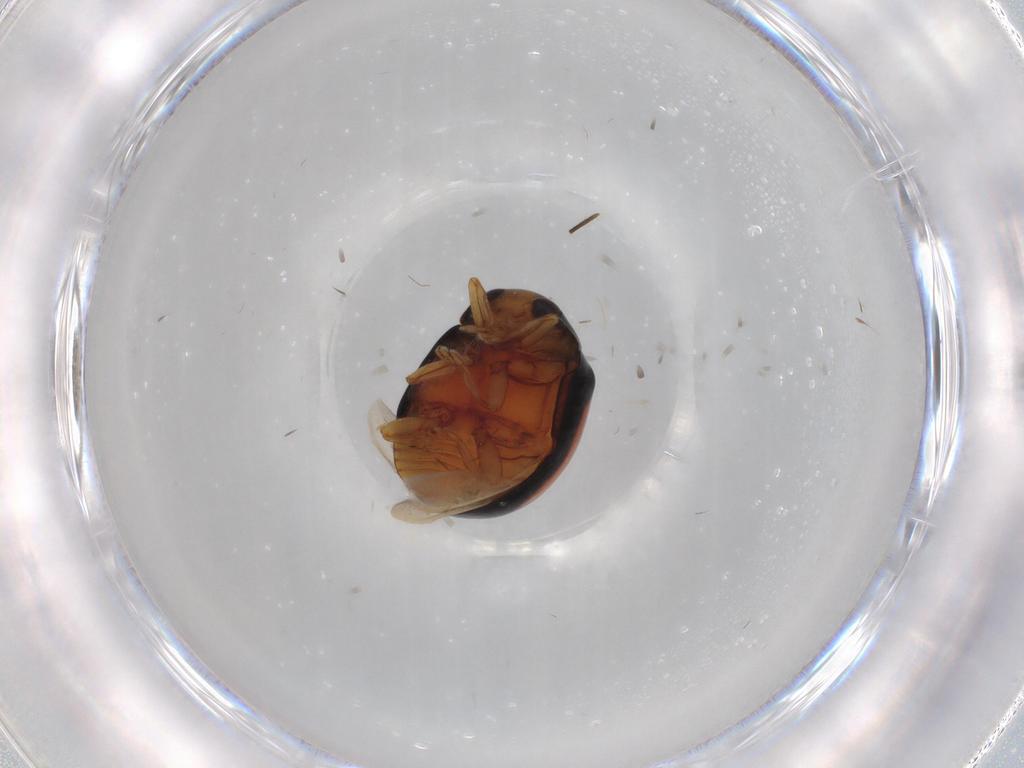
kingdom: Animalia
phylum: Arthropoda
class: Insecta
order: Coleoptera
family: Coccinellidae
